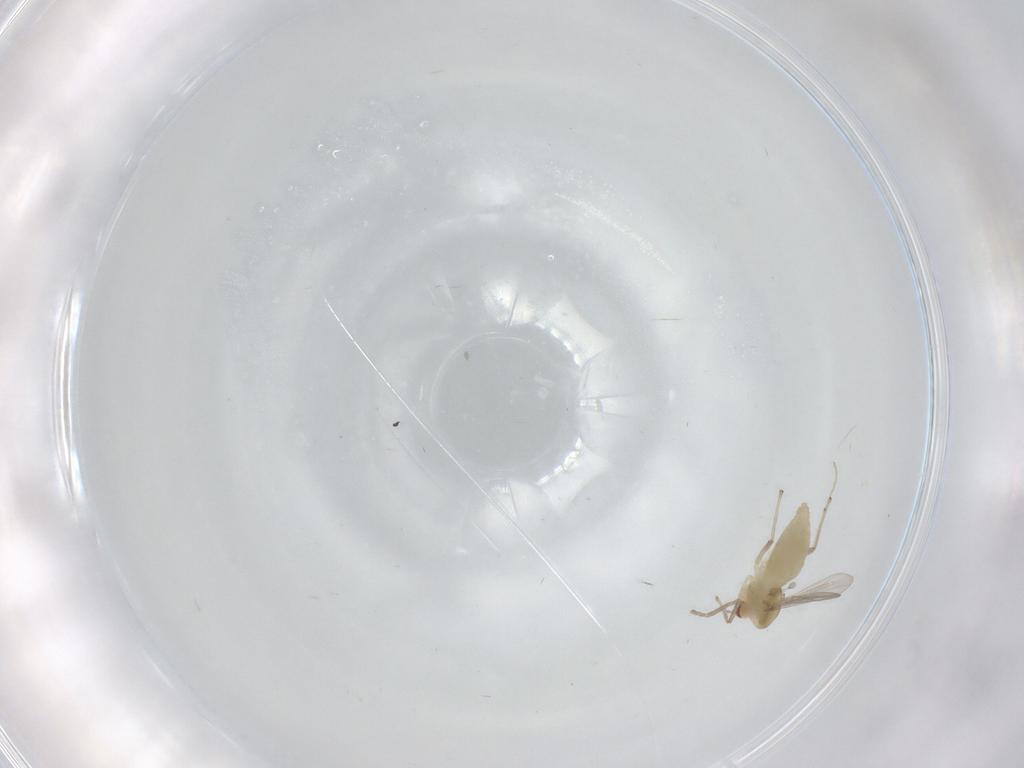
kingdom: Animalia
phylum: Arthropoda
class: Insecta
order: Diptera
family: Chironomidae
